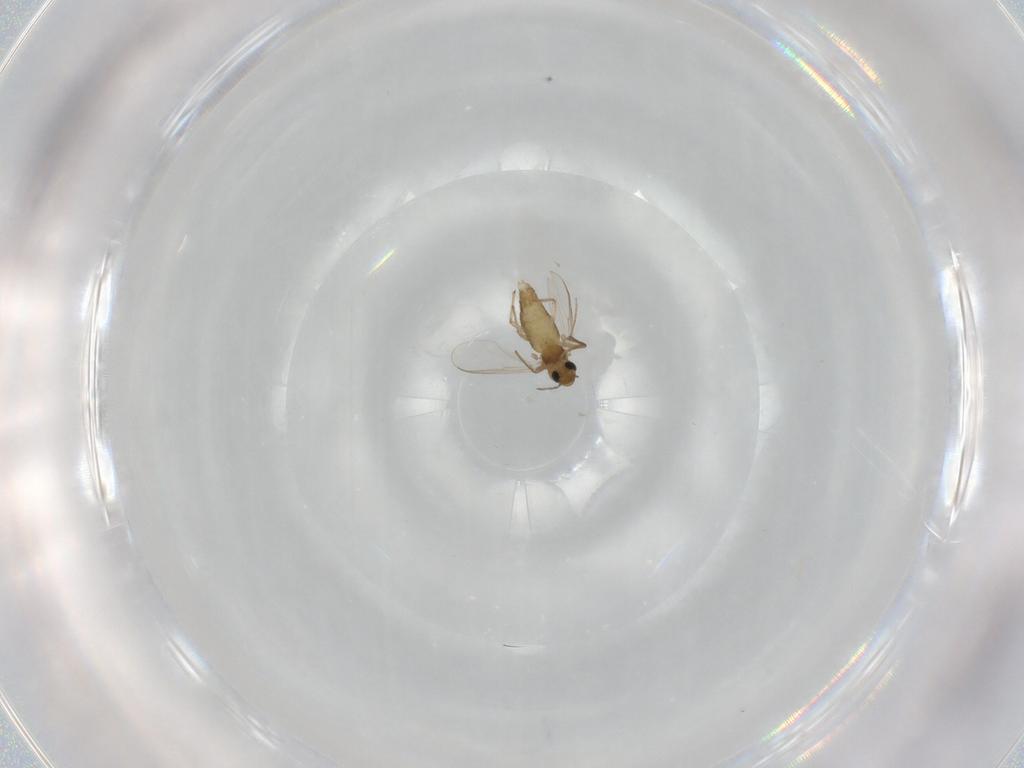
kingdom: Animalia
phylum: Arthropoda
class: Insecta
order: Diptera
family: Chironomidae
